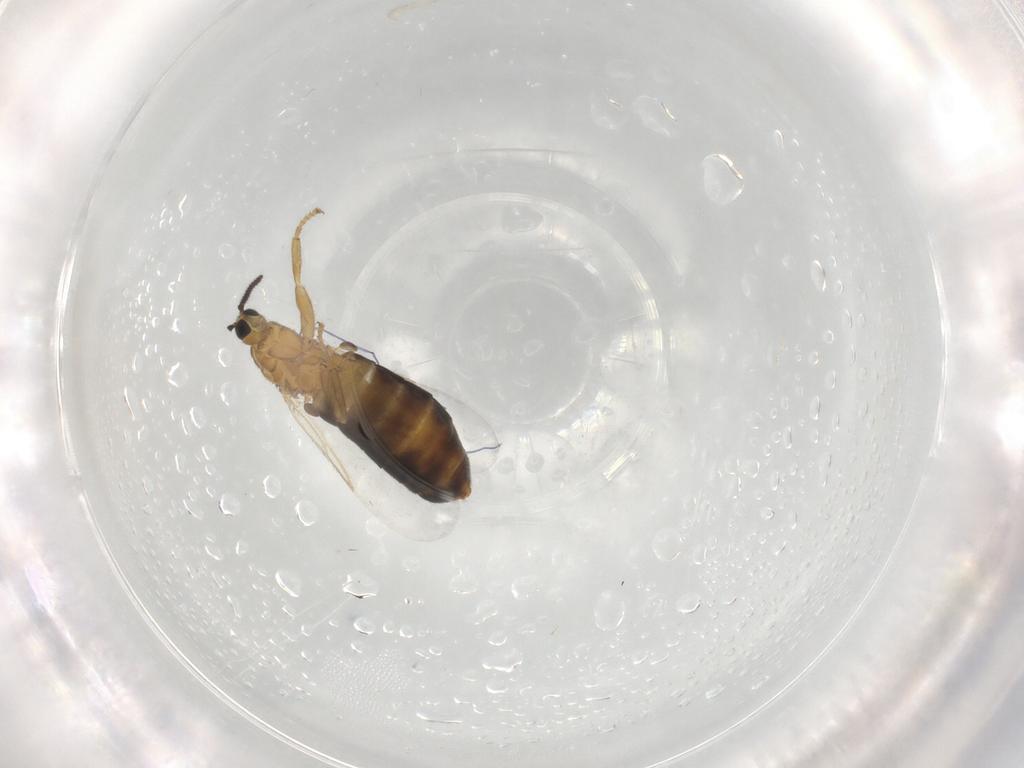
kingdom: Animalia
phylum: Arthropoda
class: Insecta
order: Diptera
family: Scatopsidae
